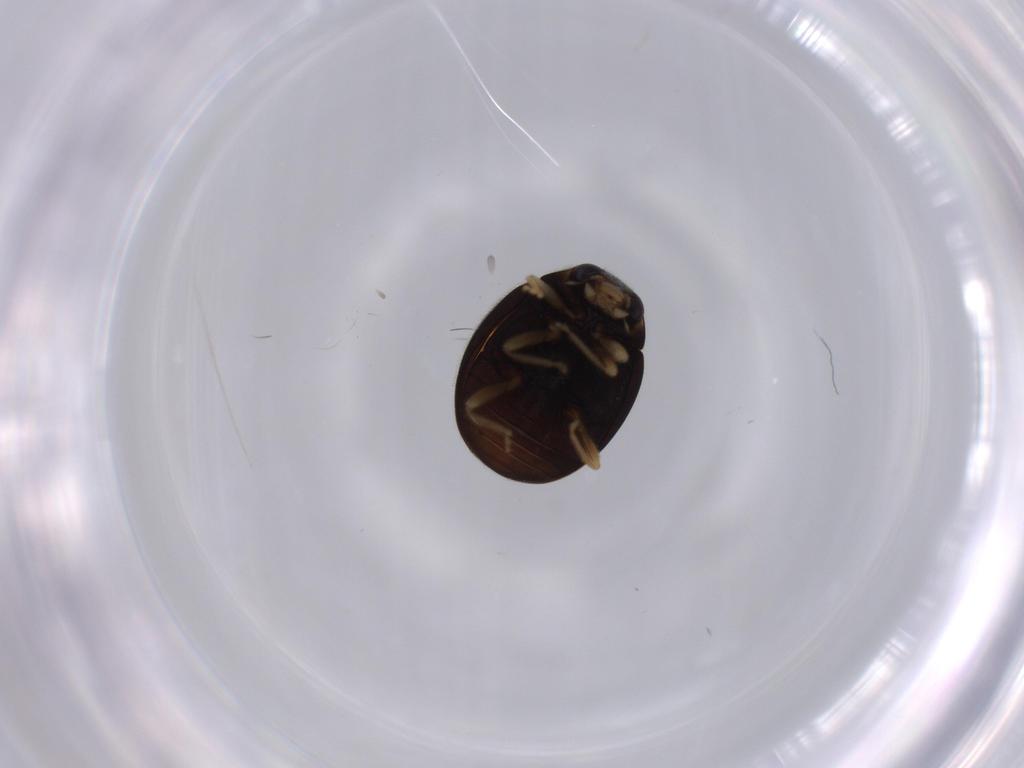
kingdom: Animalia
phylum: Arthropoda
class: Insecta
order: Coleoptera
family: Coccinellidae
